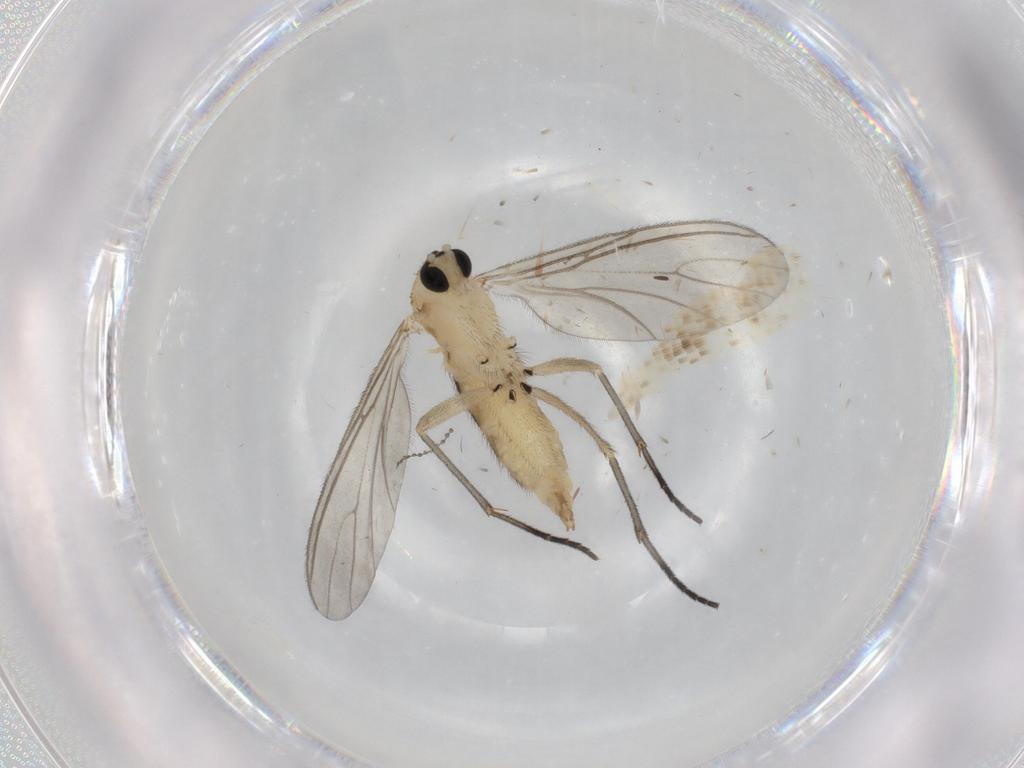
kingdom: Animalia
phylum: Arthropoda
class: Insecta
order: Diptera
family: Sciaridae
